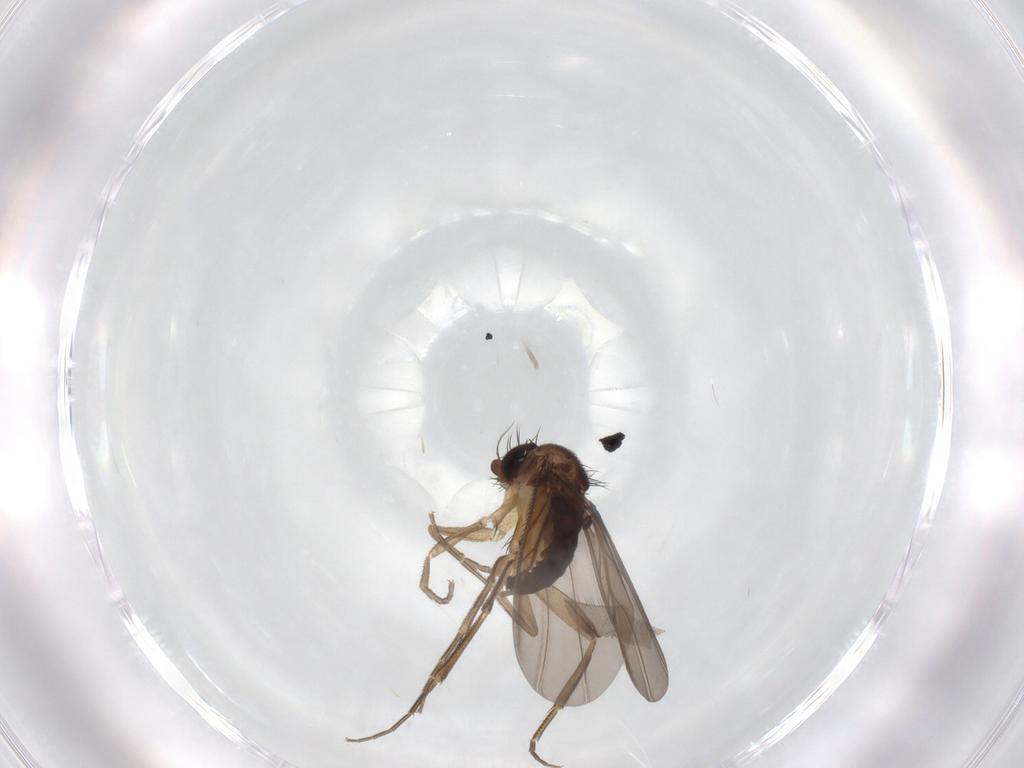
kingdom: Animalia
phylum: Arthropoda
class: Insecta
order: Diptera
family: Phoridae
